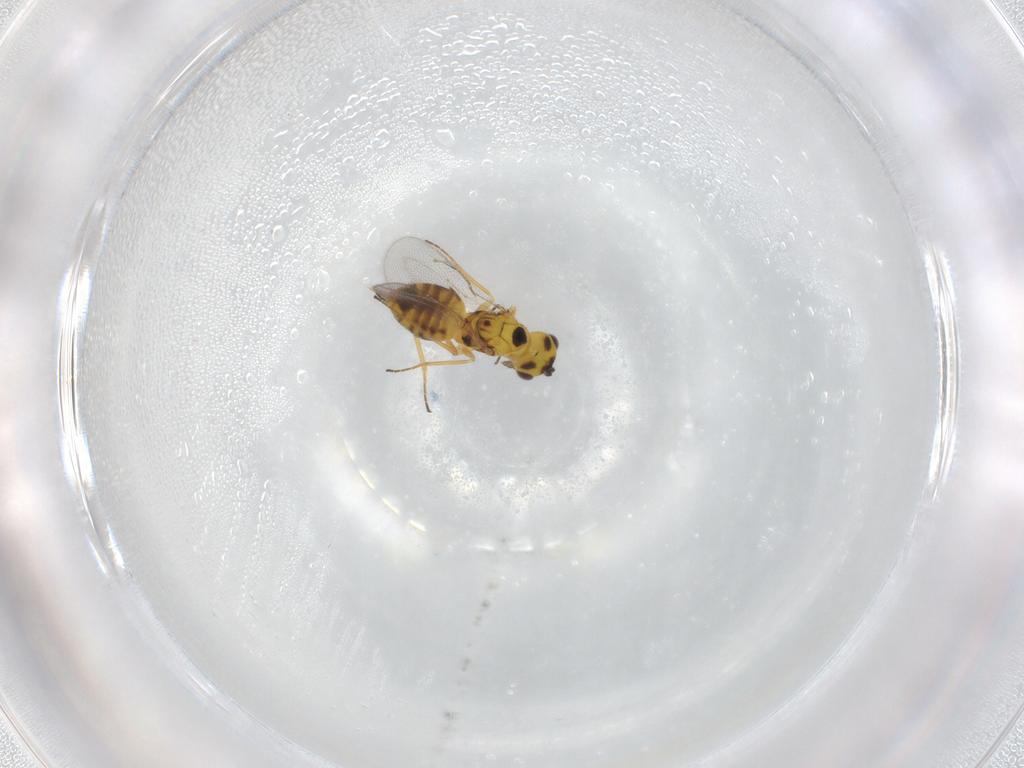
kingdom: Animalia
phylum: Arthropoda
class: Insecta
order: Hymenoptera
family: Eulophidae
